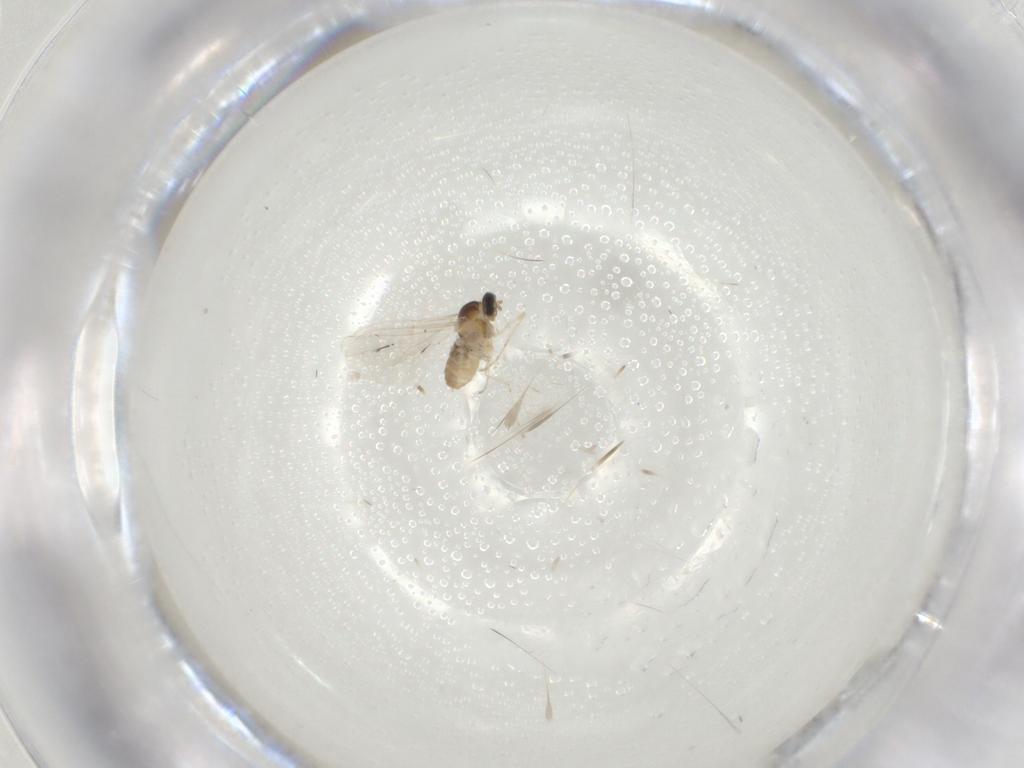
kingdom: Animalia
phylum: Arthropoda
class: Insecta
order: Diptera
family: Cecidomyiidae
